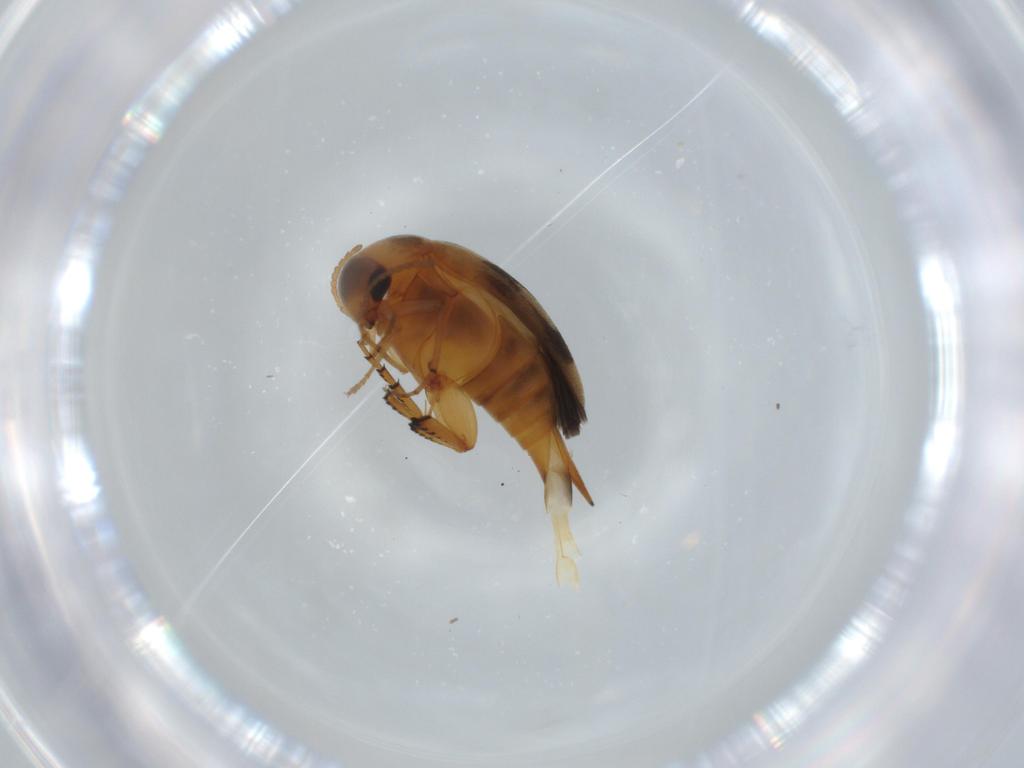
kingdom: Animalia
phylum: Arthropoda
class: Insecta
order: Coleoptera
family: Mordellidae
